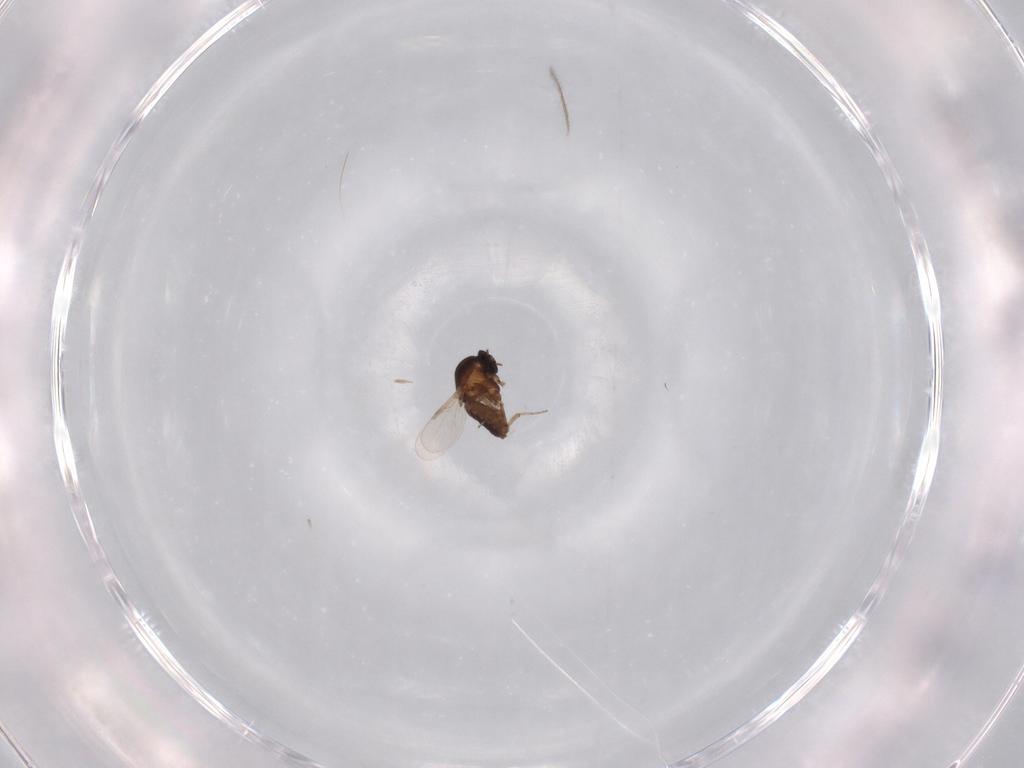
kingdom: Animalia
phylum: Arthropoda
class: Insecta
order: Diptera
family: Ceratopogonidae
